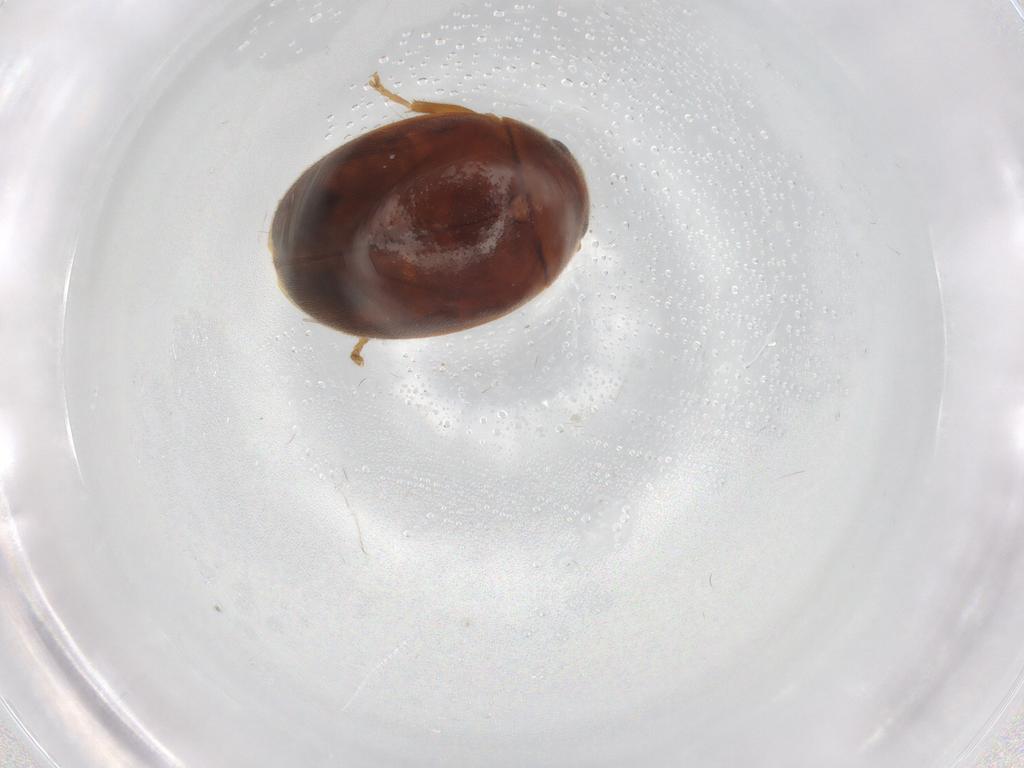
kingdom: Animalia
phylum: Arthropoda
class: Insecta
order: Coleoptera
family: Scirtidae
